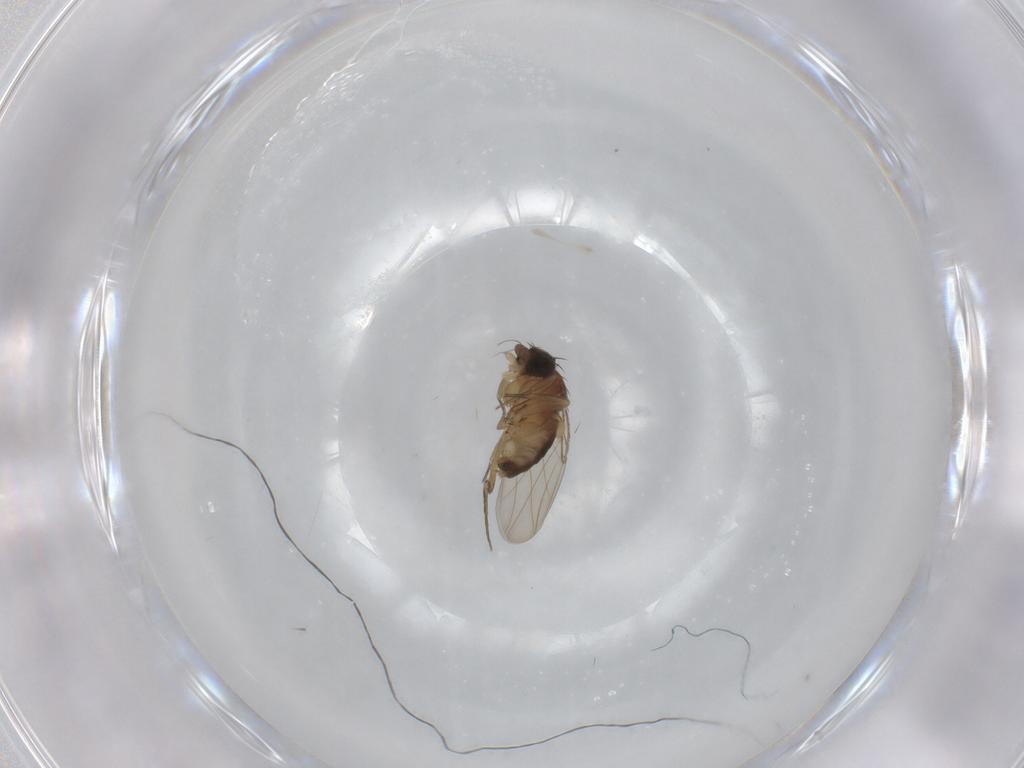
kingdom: Animalia
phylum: Arthropoda
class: Insecta
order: Diptera
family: Phoridae
